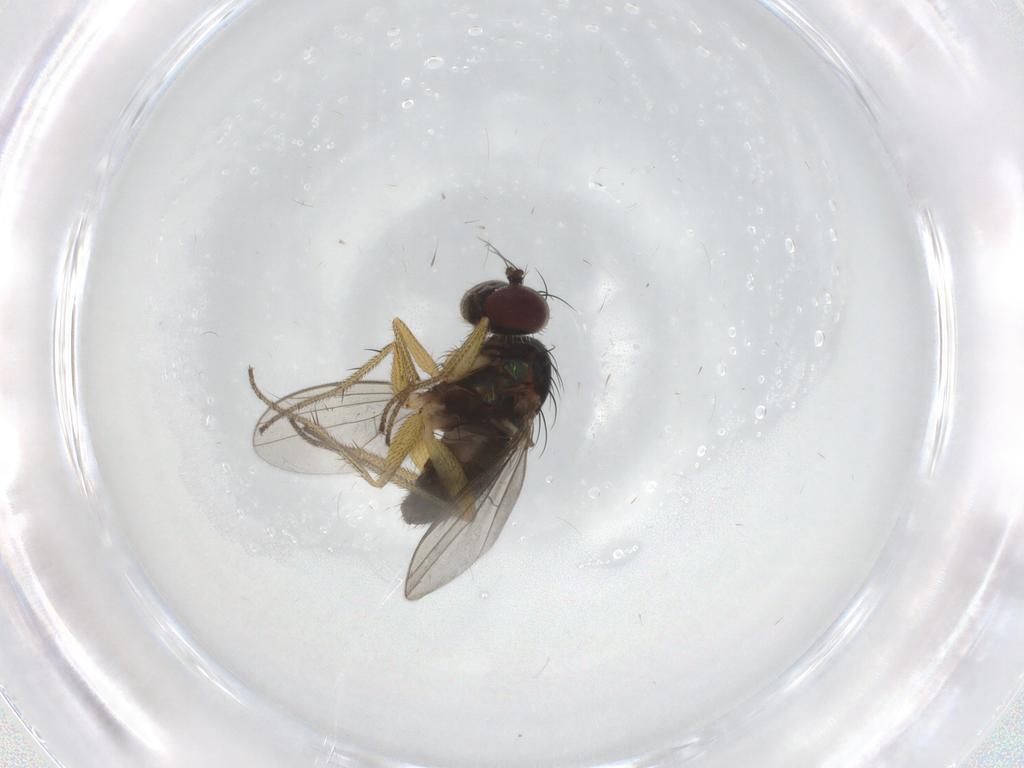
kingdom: Animalia
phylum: Arthropoda
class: Insecta
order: Diptera
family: Chironomidae
